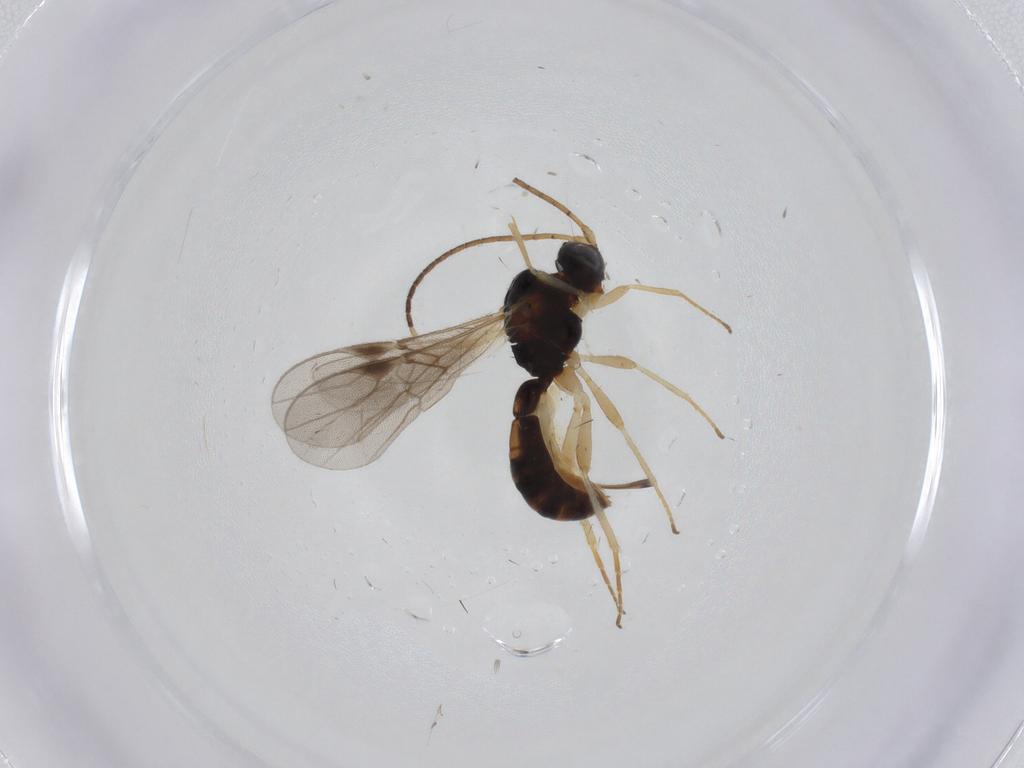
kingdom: Animalia
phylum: Arthropoda
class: Insecta
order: Hymenoptera
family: Braconidae
